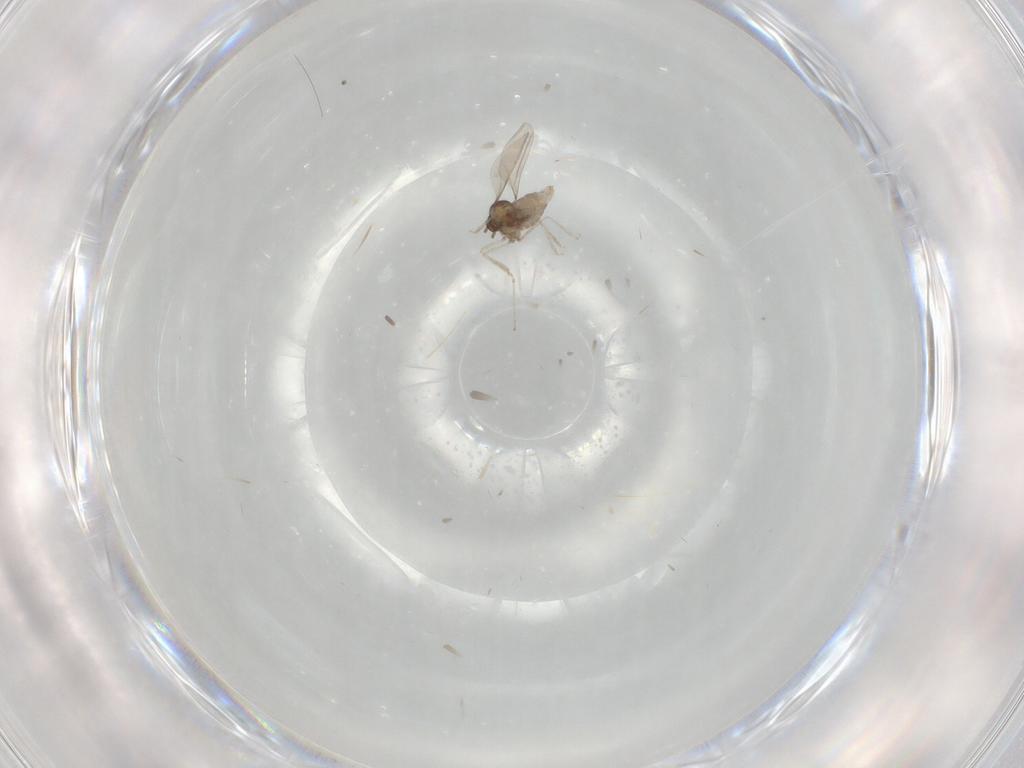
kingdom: Animalia
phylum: Arthropoda
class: Insecta
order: Diptera
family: Cecidomyiidae
